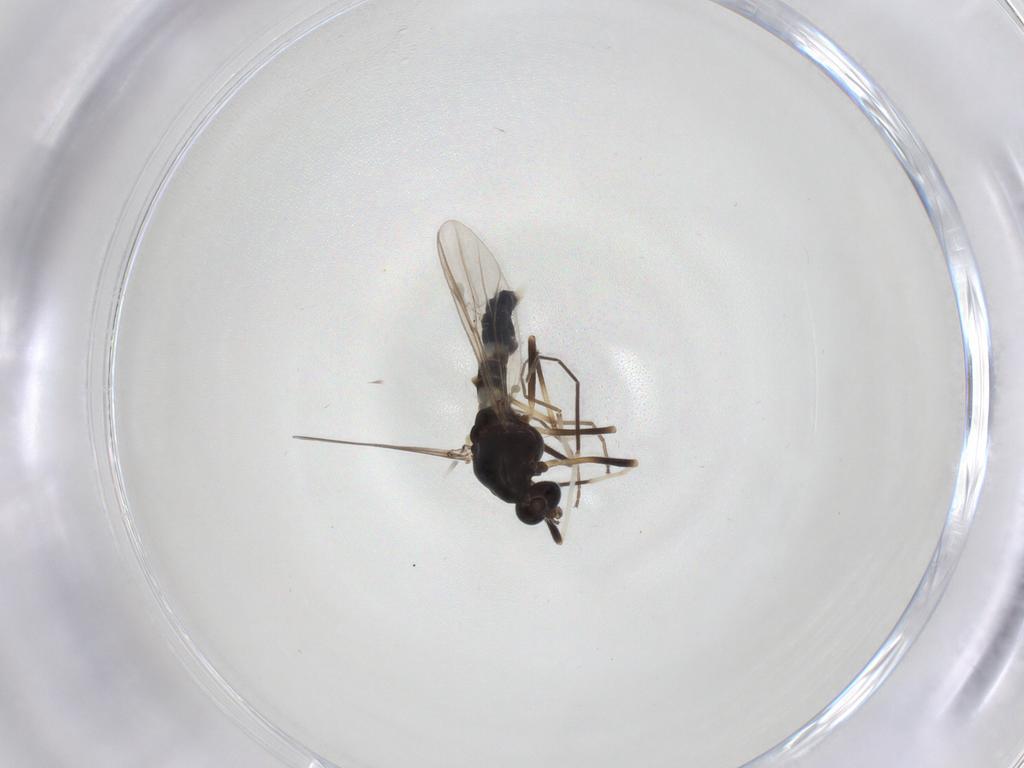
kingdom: Animalia
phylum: Arthropoda
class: Insecta
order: Diptera
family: Chironomidae
